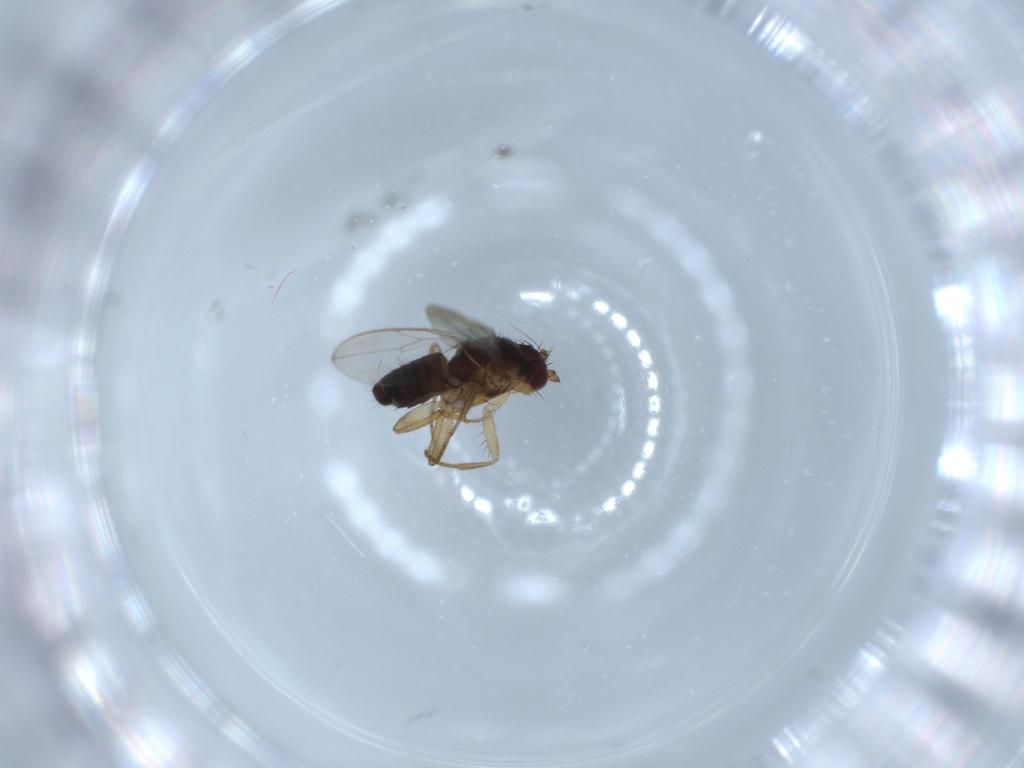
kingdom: Animalia
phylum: Arthropoda
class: Insecta
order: Diptera
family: Sphaeroceridae
